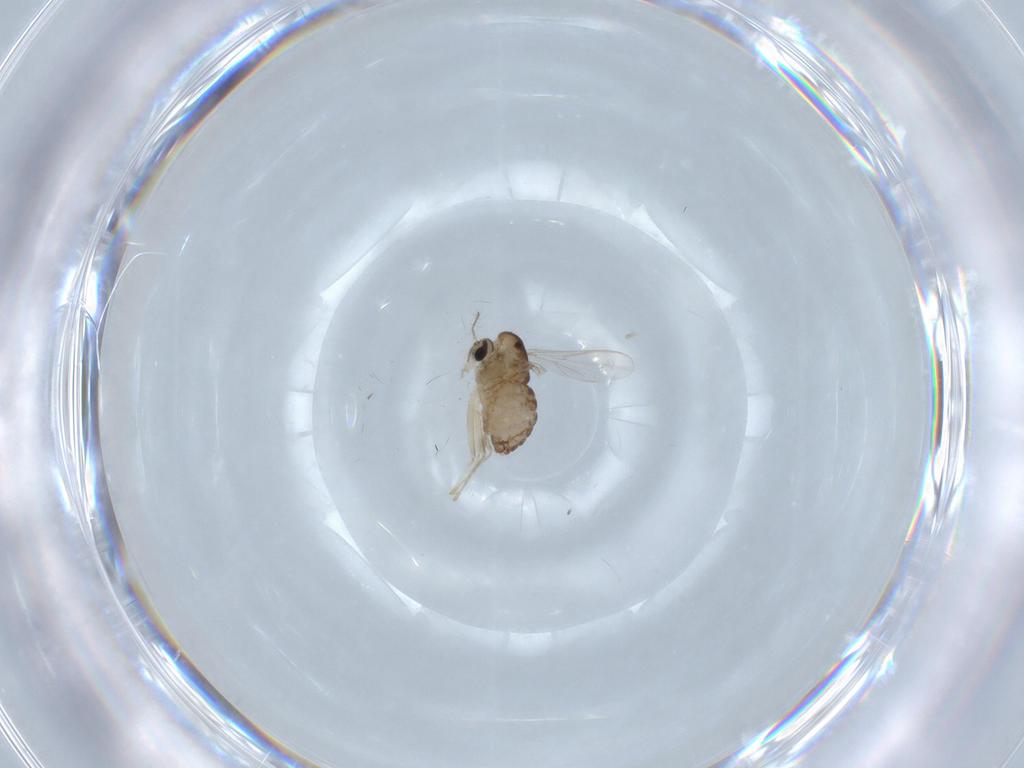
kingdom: Animalia
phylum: Arthropoda
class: Insecta
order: Diptera
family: Chironomidae
